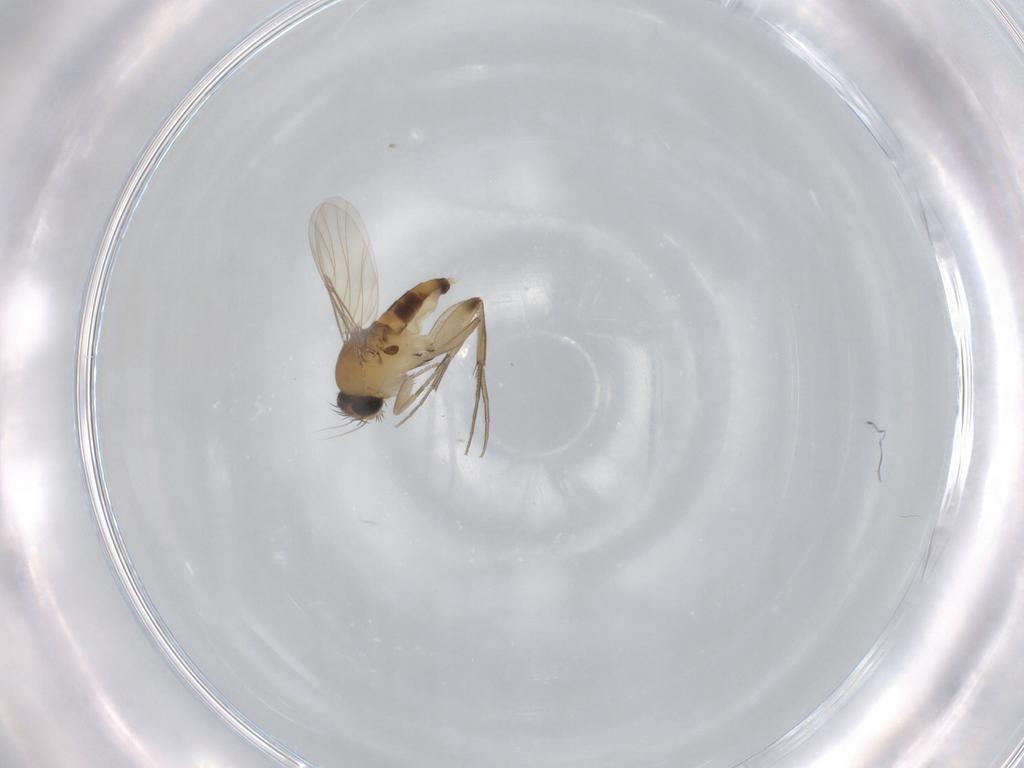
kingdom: Animalia
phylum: Arthropoda
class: Insecta
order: Diptera
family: Phoridae
